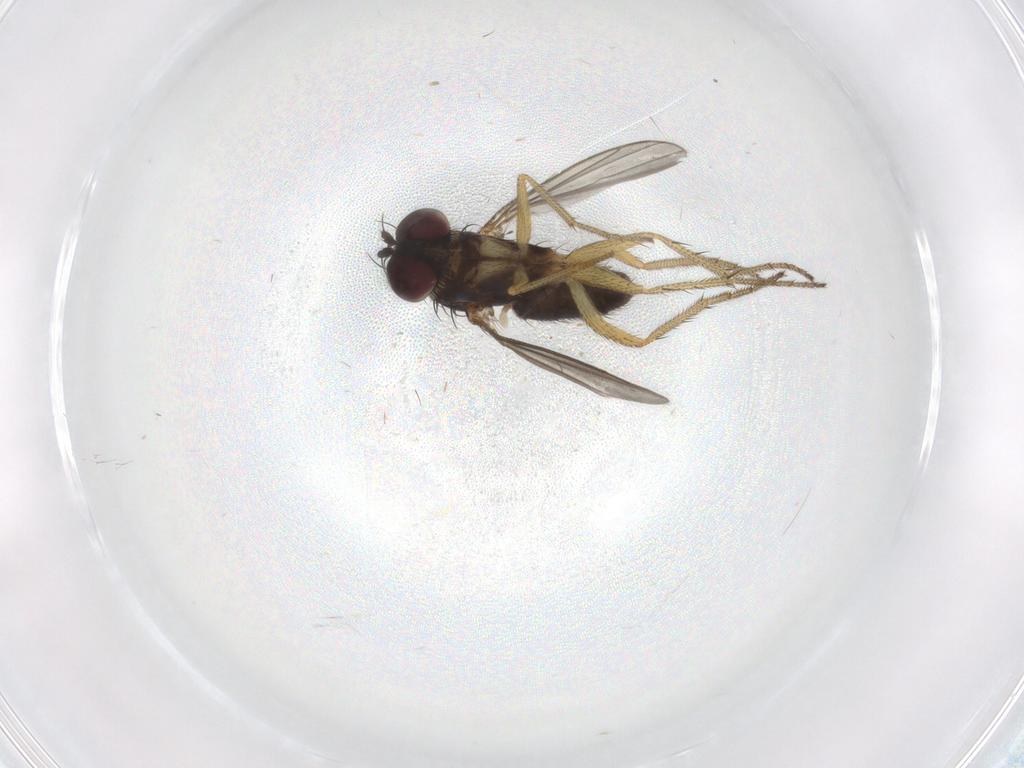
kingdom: Animalia
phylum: Arthropoda
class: Insecta
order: Diptera
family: Dolichopodidae
